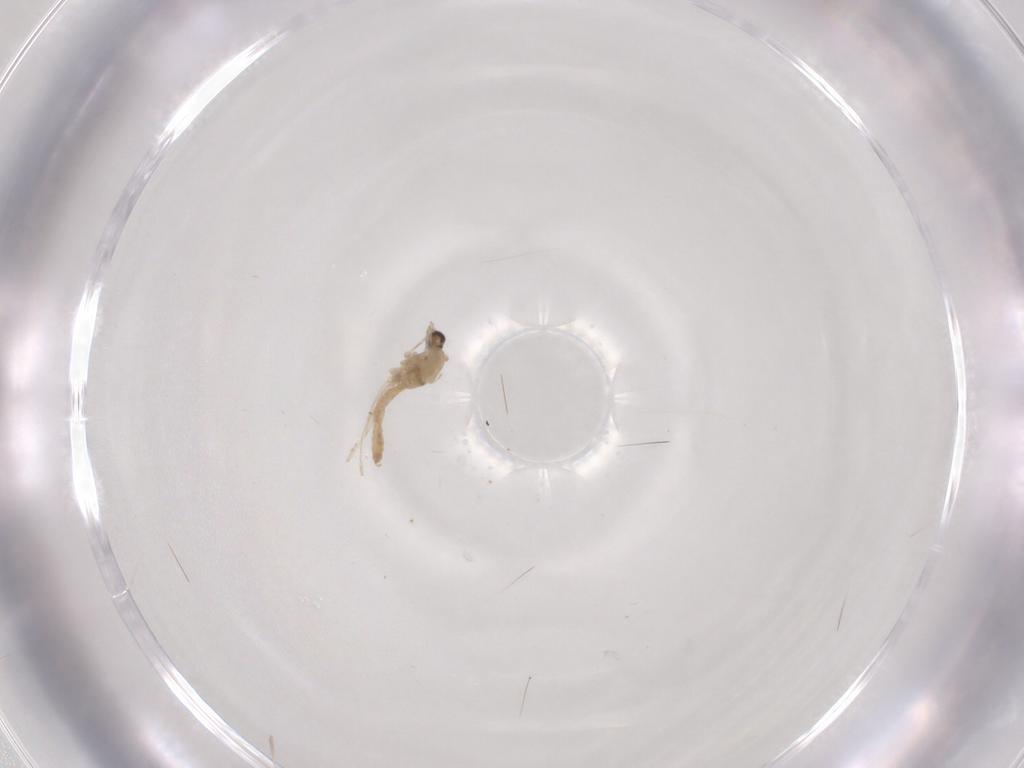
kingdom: Animalia
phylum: Arthropoda
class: Insecta
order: Diptera
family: Cecidomyiidae
